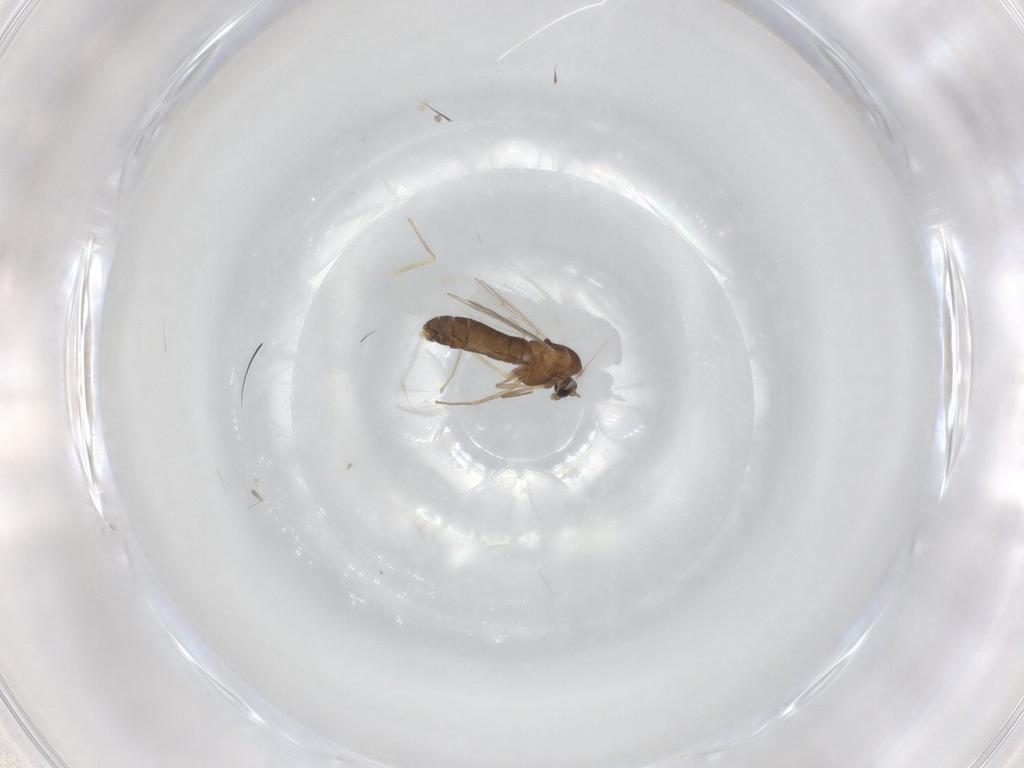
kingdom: Animalia
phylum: Arthropoda
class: Insecta
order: Diptera
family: Chironomidae
